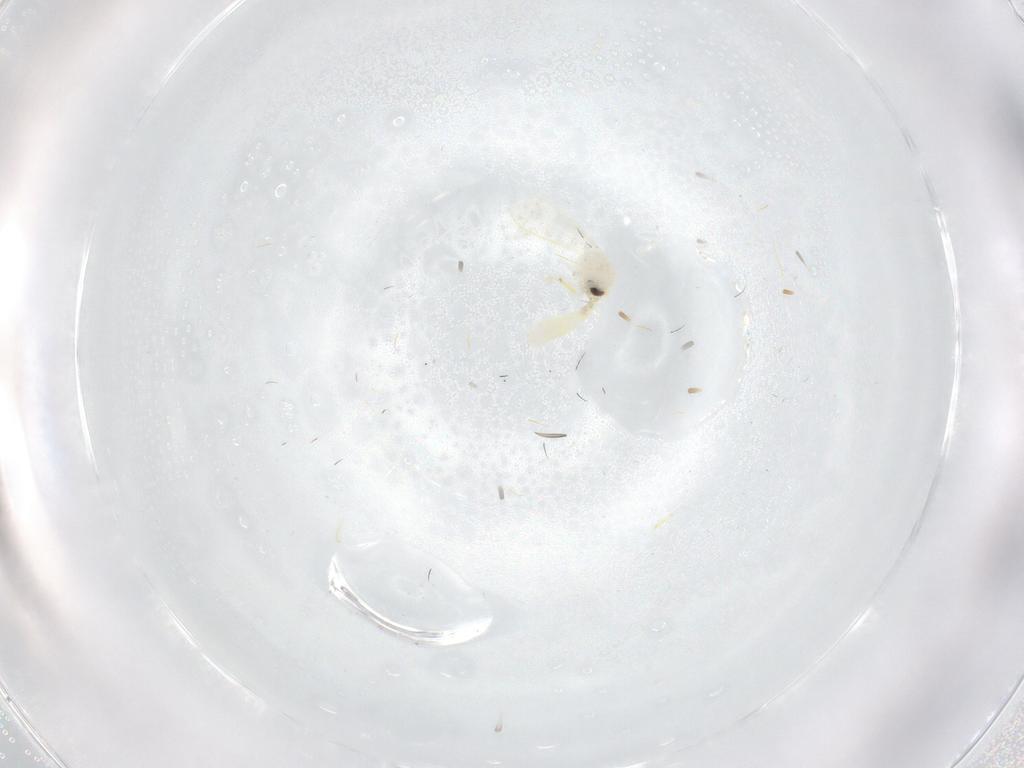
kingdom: Animalia
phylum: Arthropoda
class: Insecta
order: Hemiptera
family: Aleyrodidae
